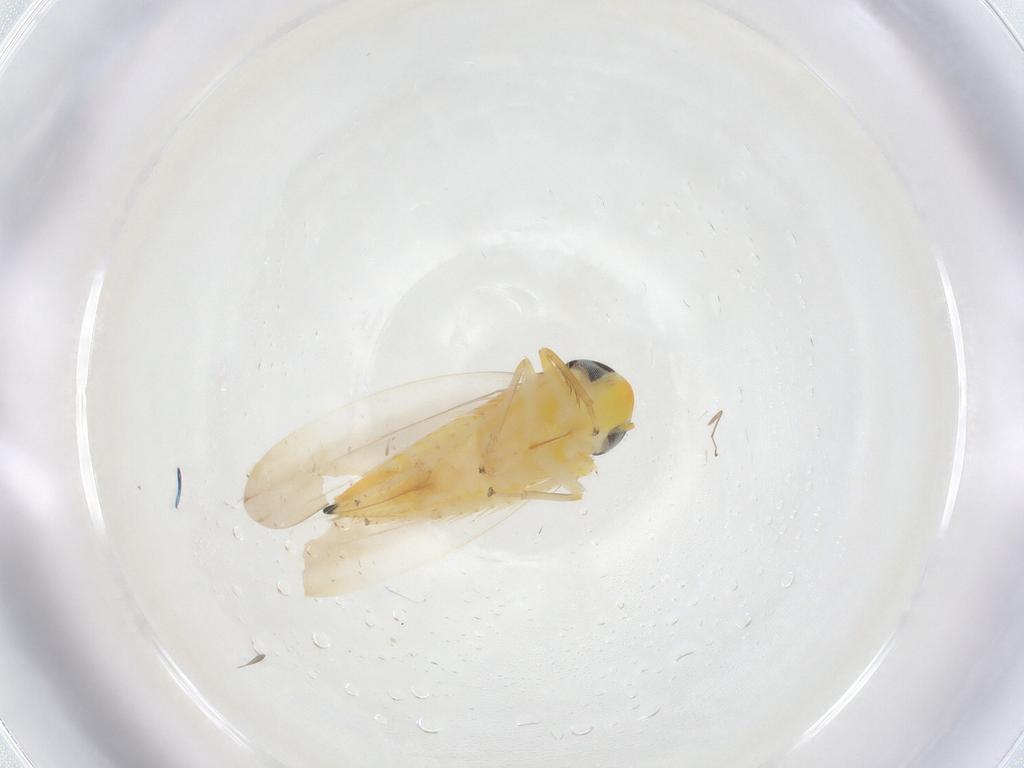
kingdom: Animalia
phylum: Arthropoda
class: Insecta
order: Hemiptera
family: Cicadellidae
